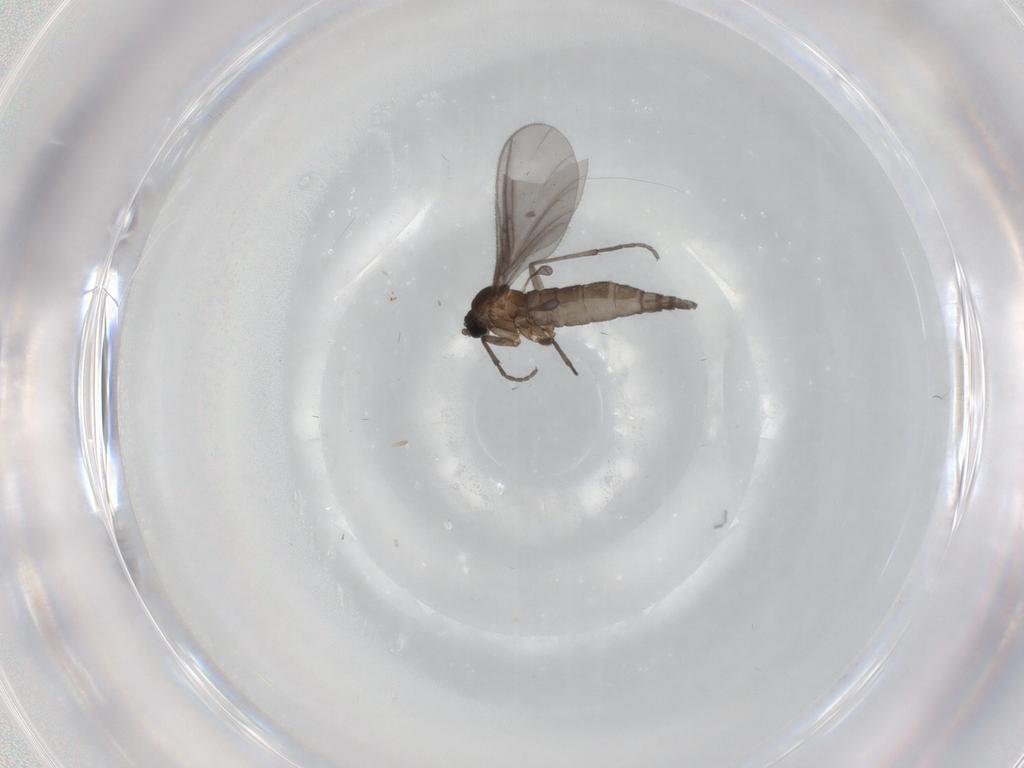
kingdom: Animalia
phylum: Arthropoda
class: Insecta
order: Diptera
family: Sciaridae
